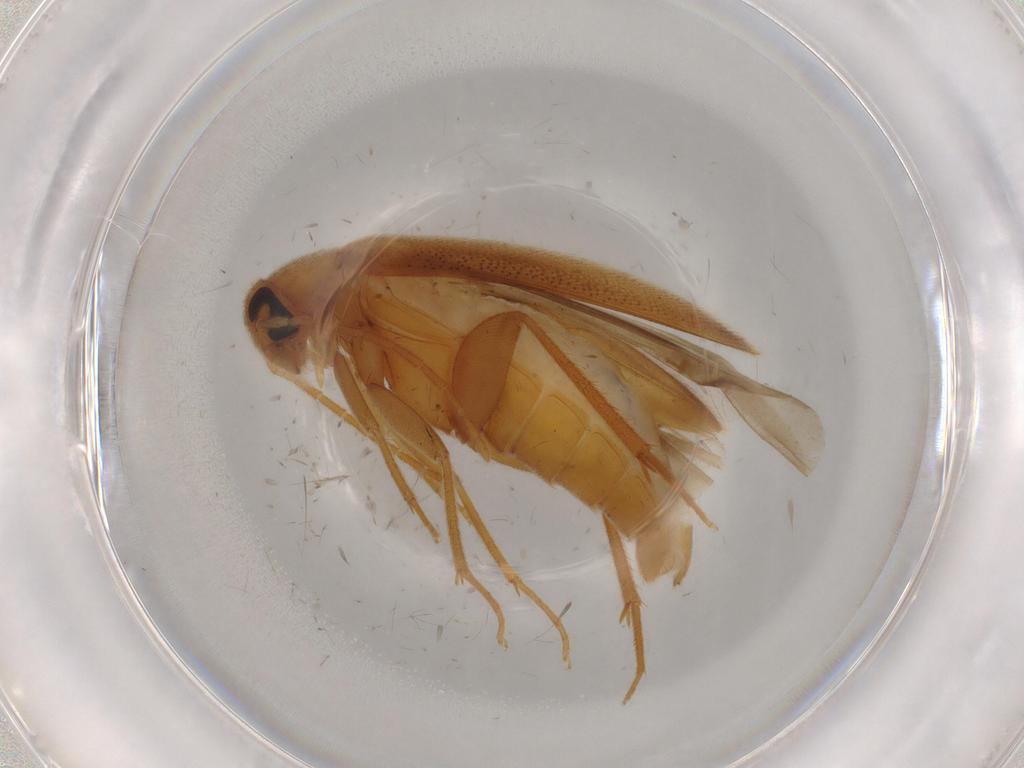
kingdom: Animalia
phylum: Arthropoda
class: Insecta
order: Coleoptera
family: Scraptiidae
